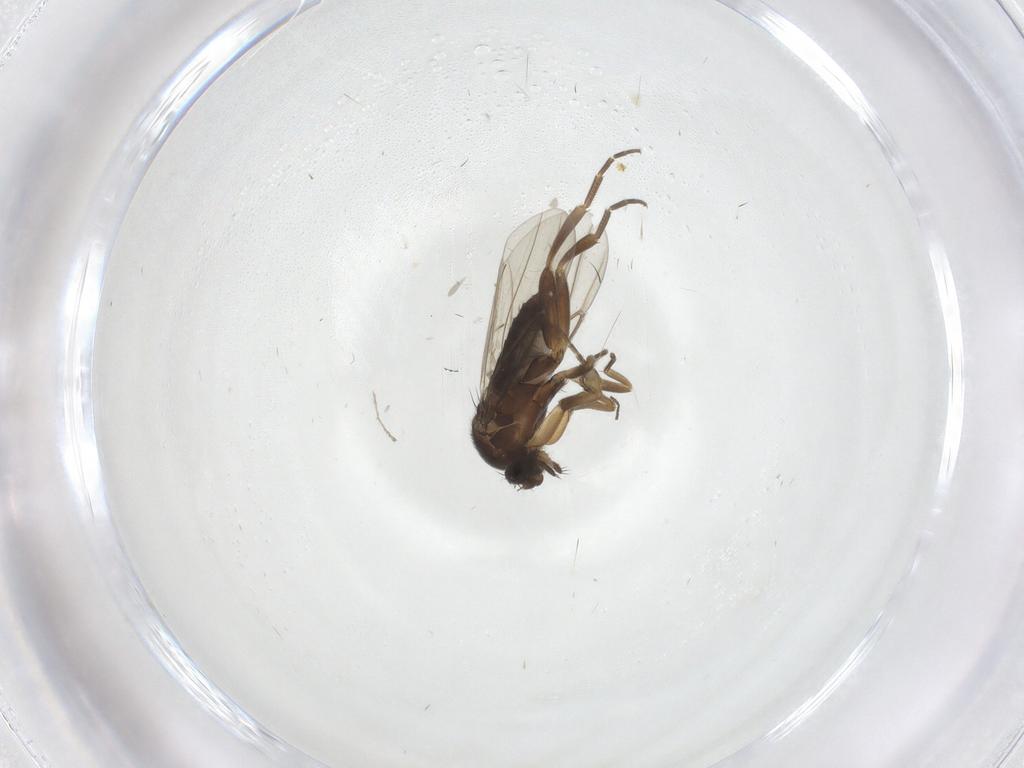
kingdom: Animalia
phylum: Arthropoda
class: Insecta
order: Diptera
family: Phoridae
